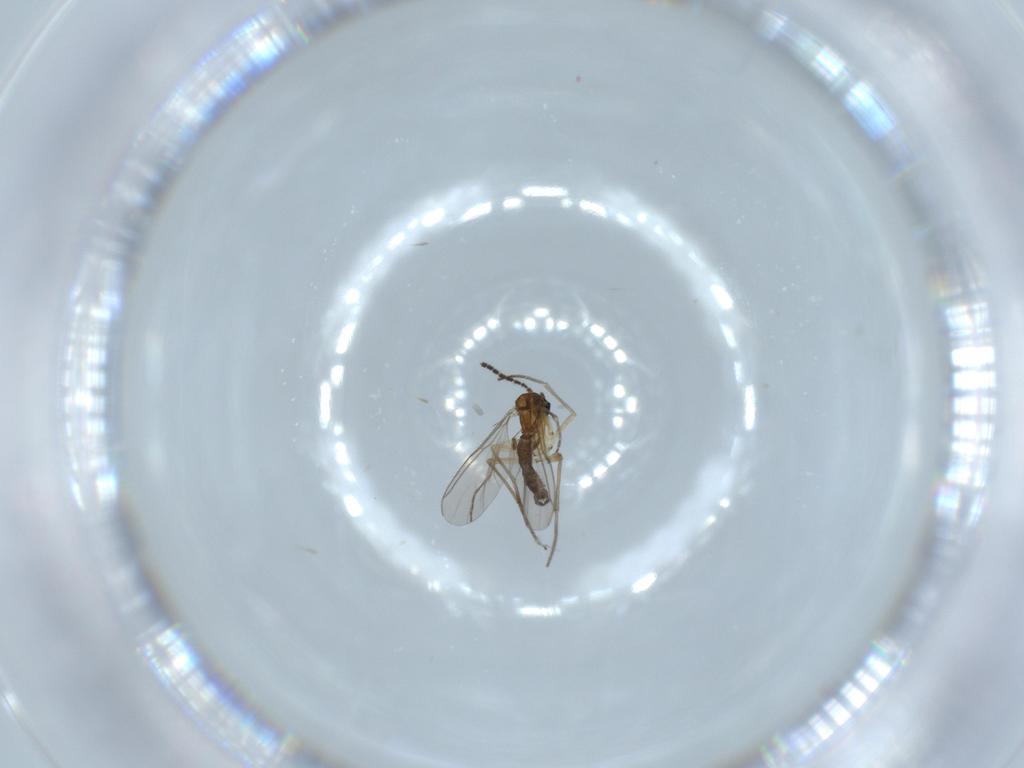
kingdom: Animalia
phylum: Arthropoda
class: Insecta
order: Diptera
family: Sciaridae
